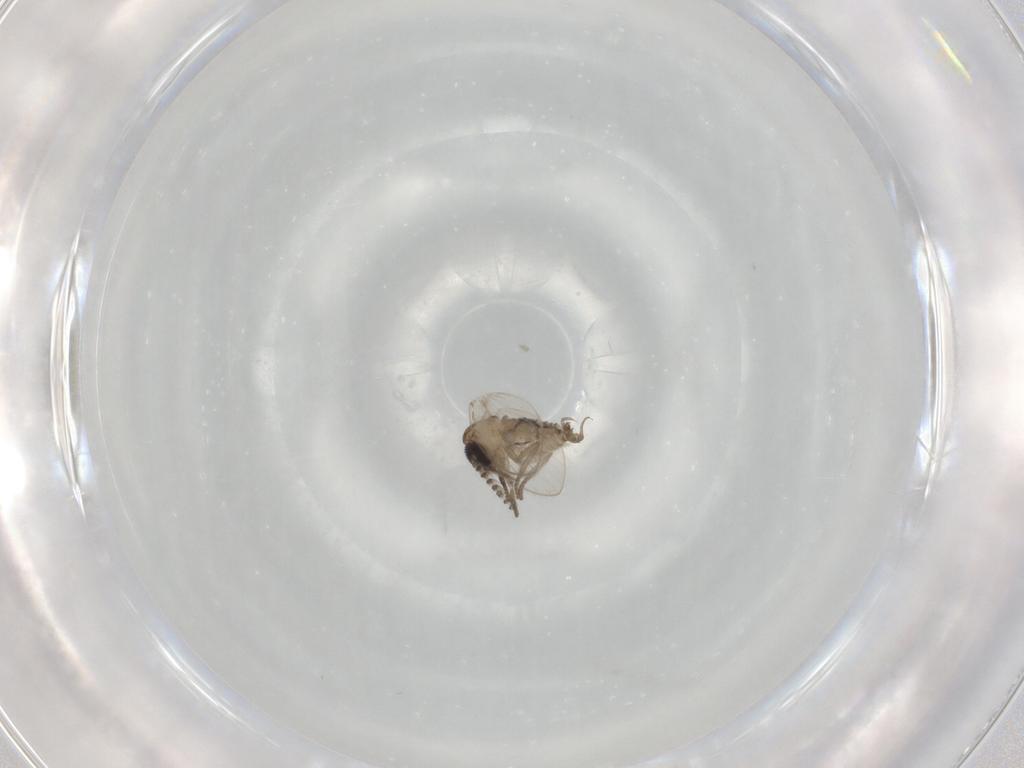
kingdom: Animalia
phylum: Arthropoda
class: Insecta
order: Diptera
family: Psychodidae
